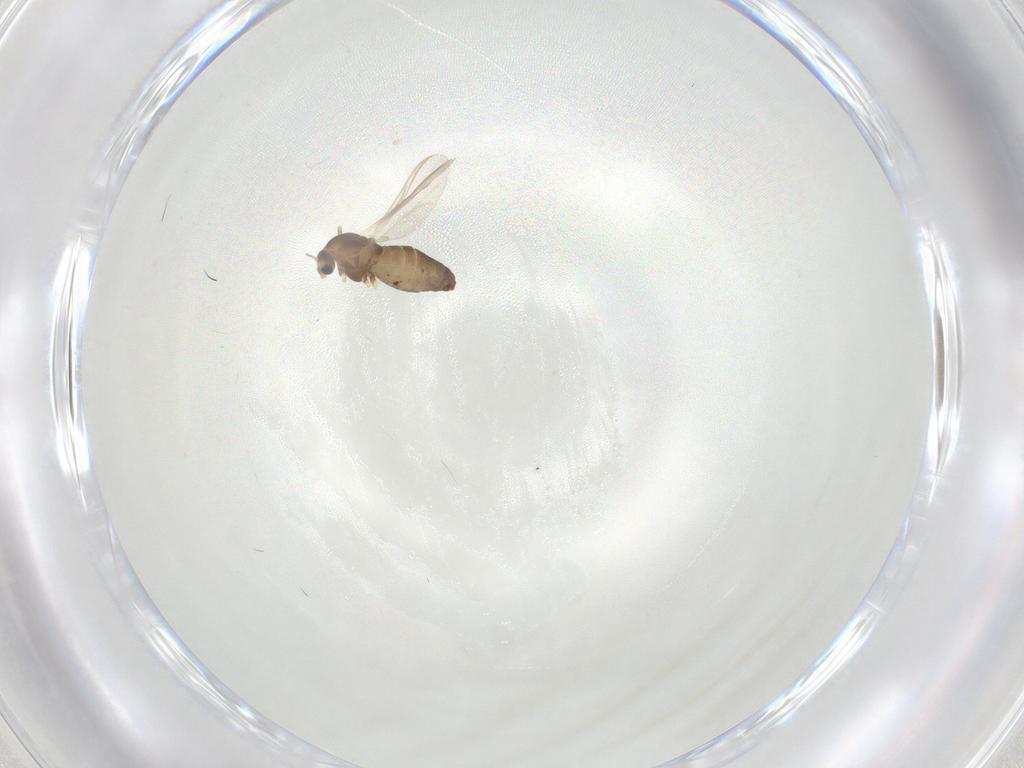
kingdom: Animalia
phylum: Arthropoda
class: Insecta
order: Diptera
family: Chironomidae
